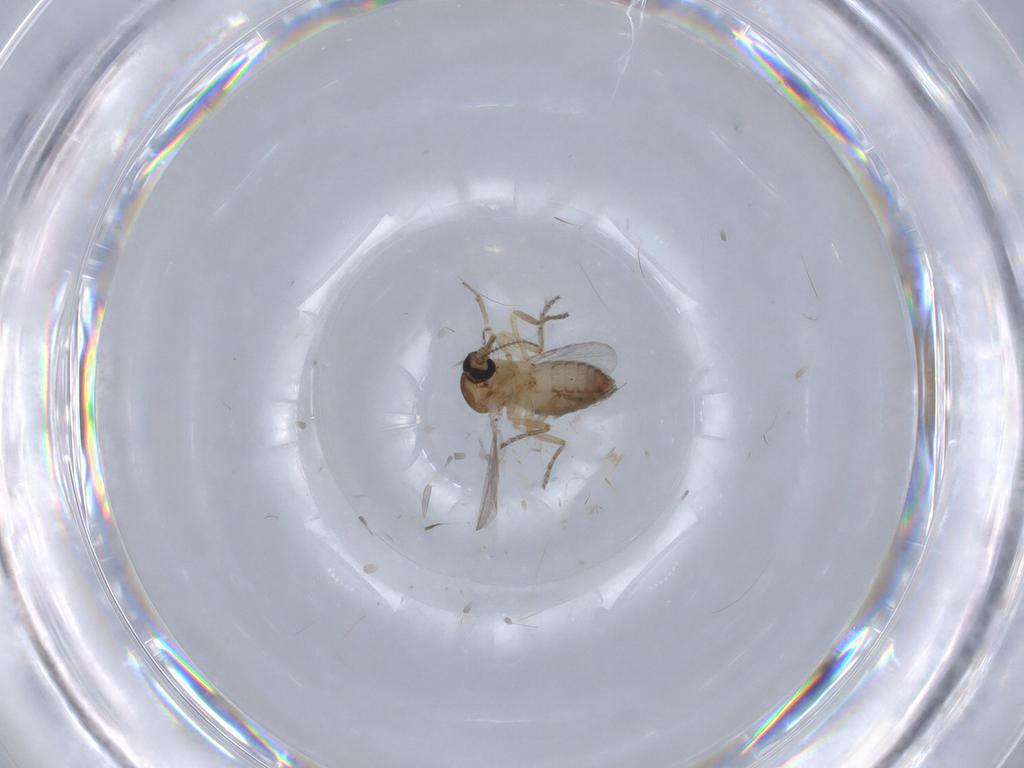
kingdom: Animalia
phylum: Arthropoda
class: Insecta
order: Diptera
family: Ceratopogonidae
